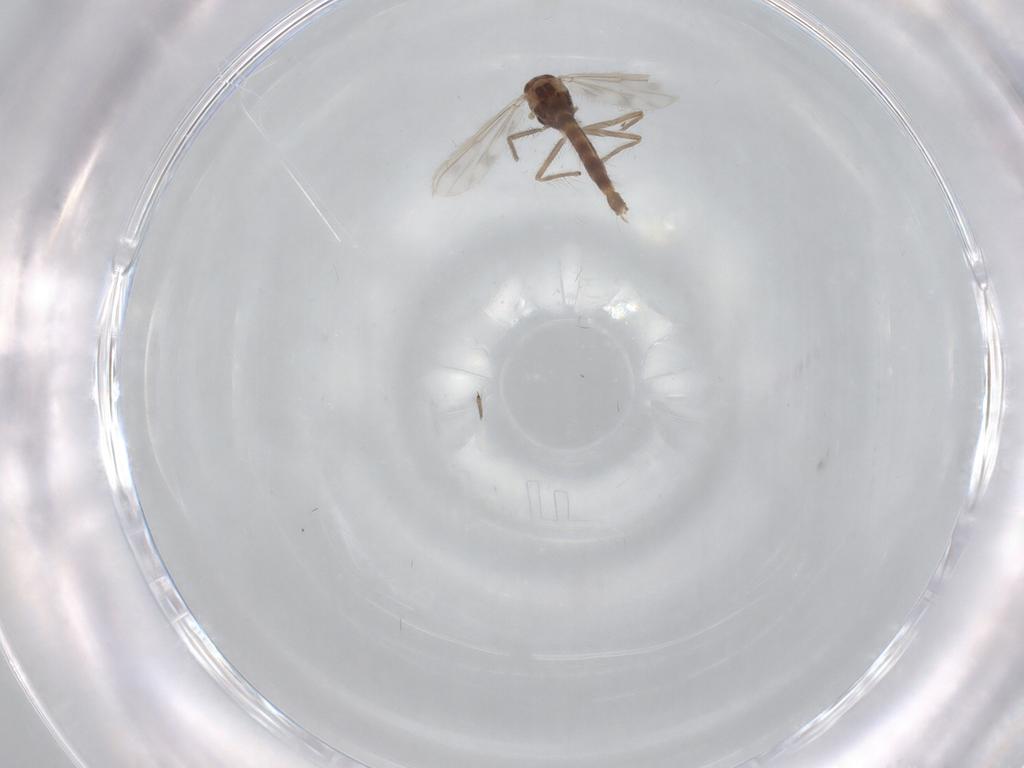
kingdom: Animalia
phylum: Arthropoda
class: Insecta
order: Diptera
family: Chironomidae
